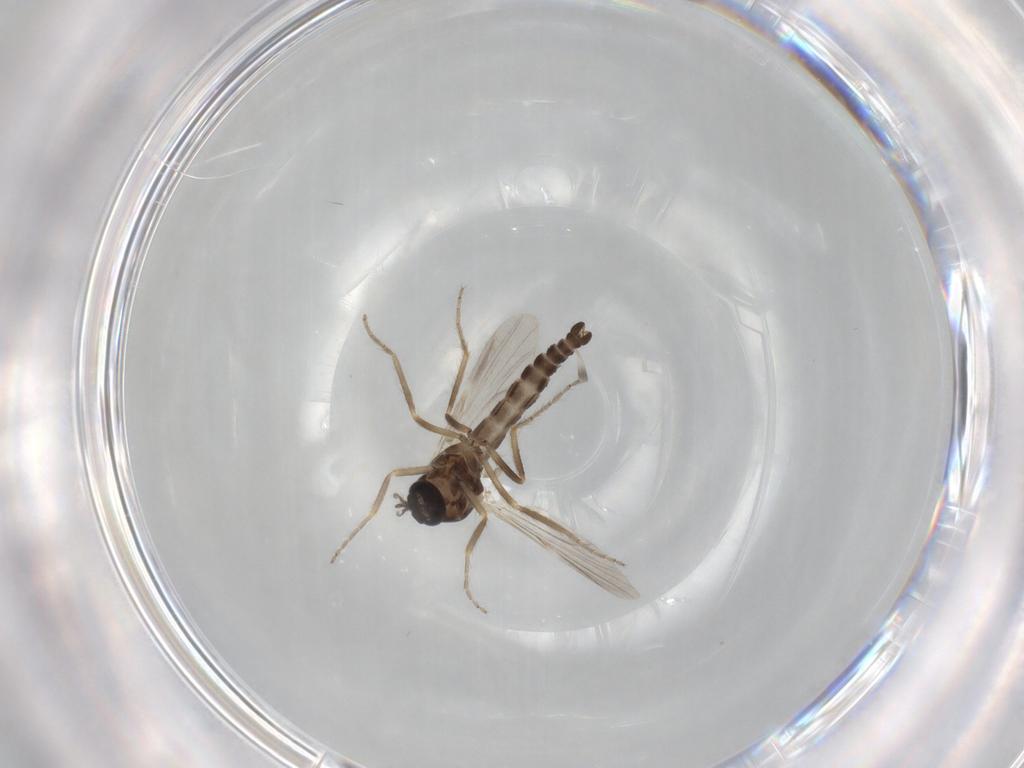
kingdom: Animalia
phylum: Arthropoda
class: Insecta
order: Diptera
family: Ceratopogonidae
